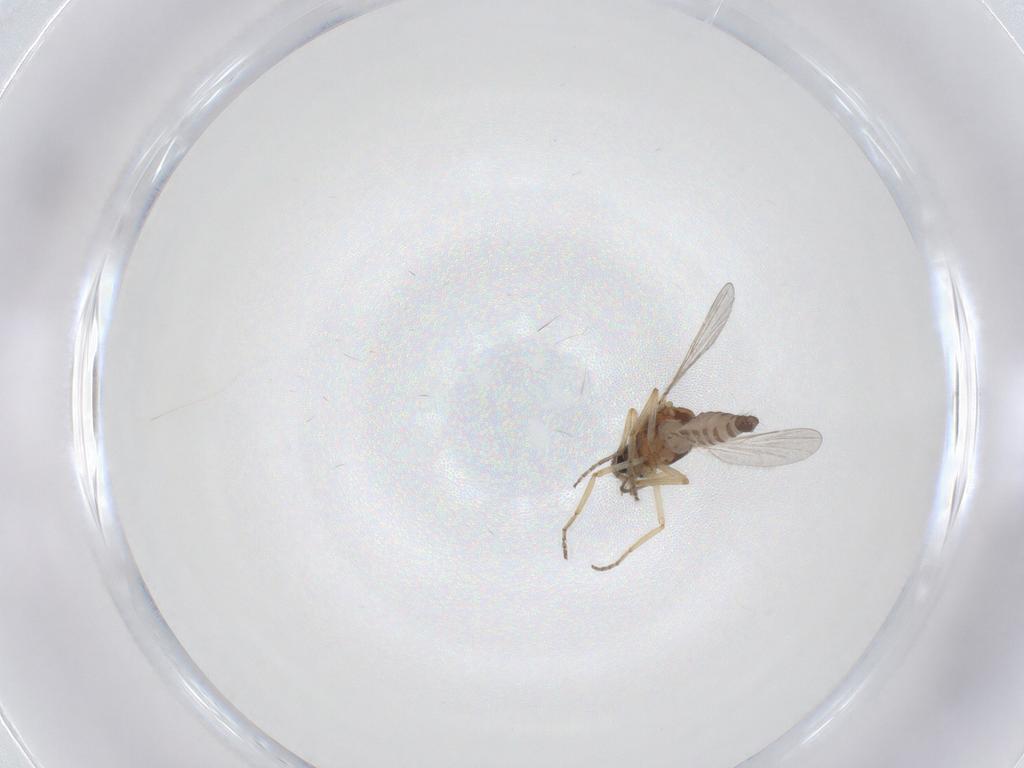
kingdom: Animalia
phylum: Arthropoda
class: Insecta
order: Diptera
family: Ceratopogonidae
